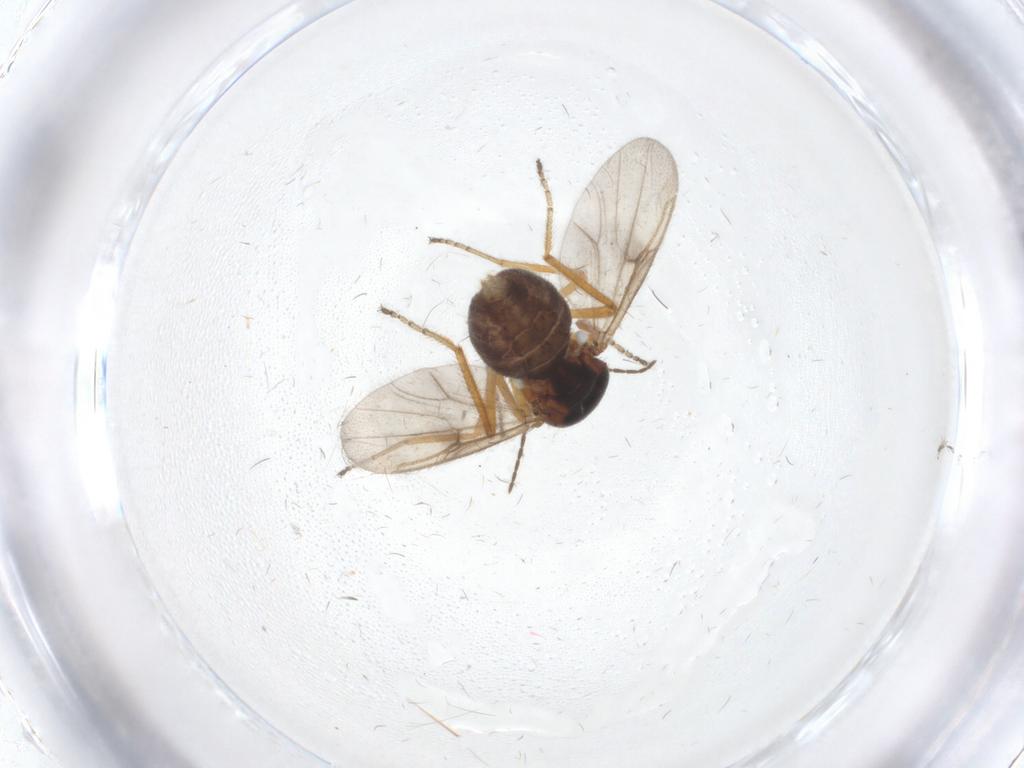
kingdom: Animalia
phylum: Arthropoda
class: Insecta
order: Diptera
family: Ceratopogonidae
